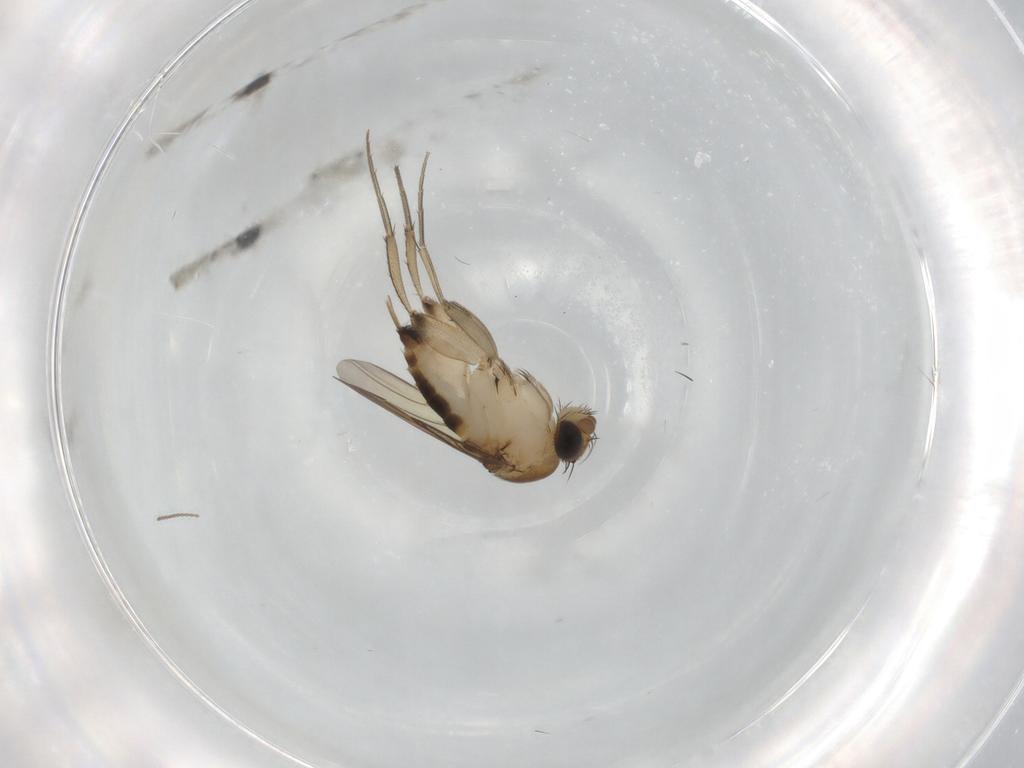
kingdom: Animalia
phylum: Arthropoda
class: Insecta
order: Diptera
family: Phoridae
